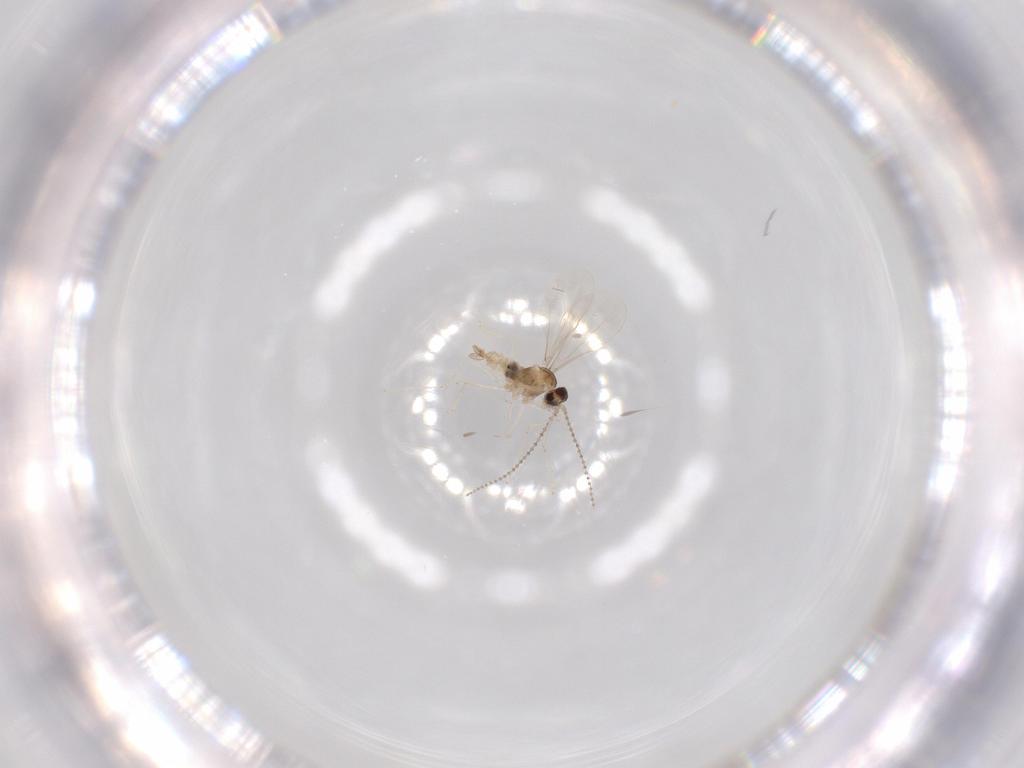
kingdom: Animalia
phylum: Arthropoda
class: Insecta
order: Diptera
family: Cecidomyiidae
